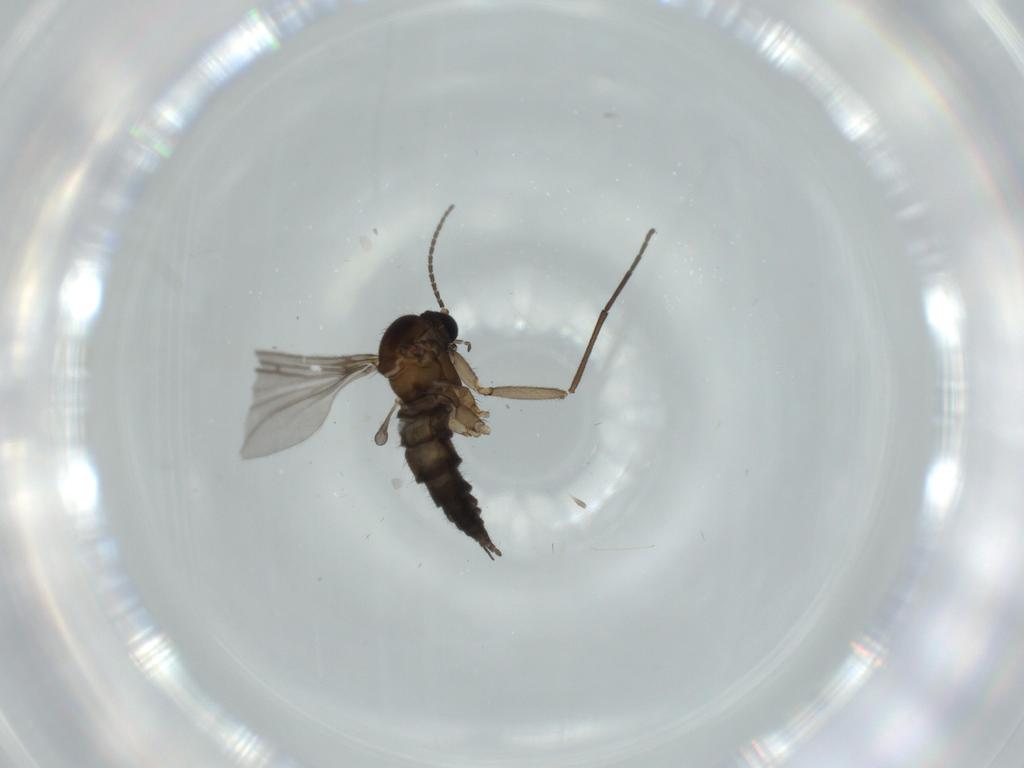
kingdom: Animalia
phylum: Arthropoda
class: Insecta
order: Diptera
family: Sciaridae
